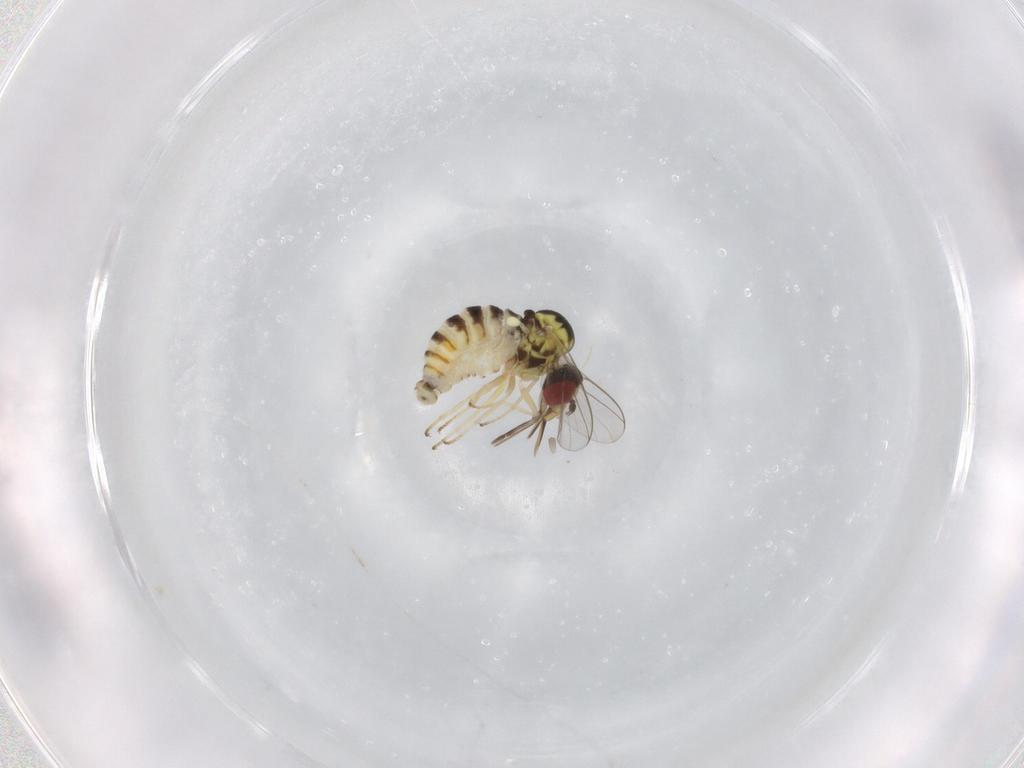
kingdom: Animalia
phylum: Arthropoda
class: Insecta
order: Diptera
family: Bombyliidae
